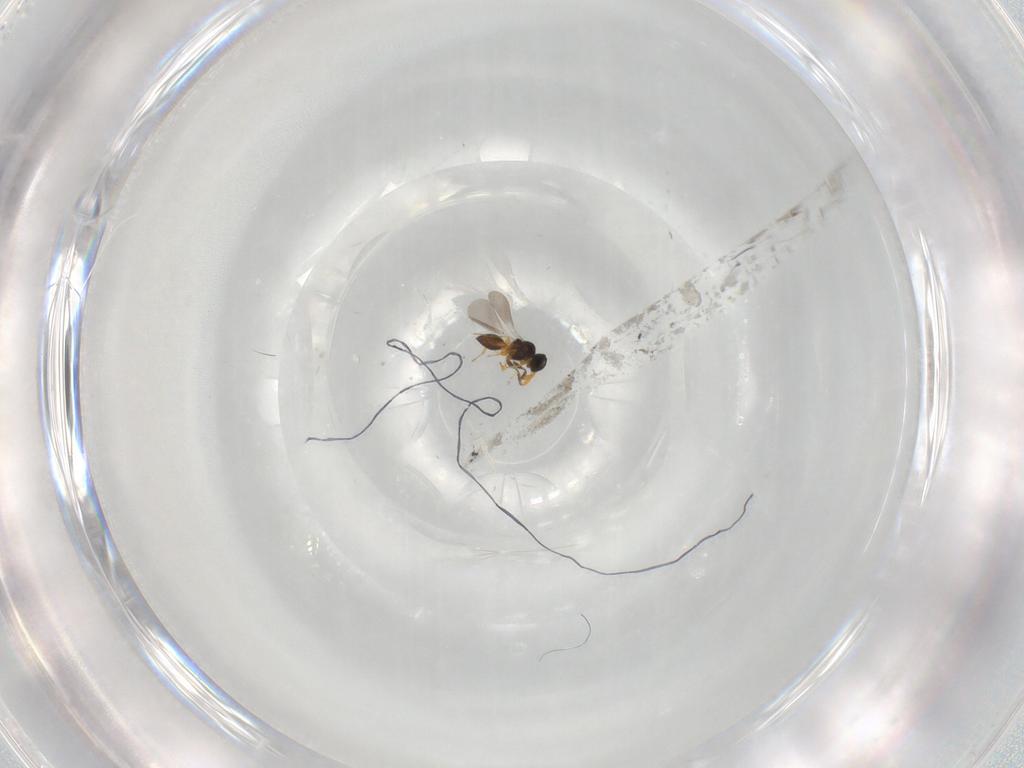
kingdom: Animalia
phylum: Arthropoda
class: Insecta
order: Hymenoptera
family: Platygastridae
